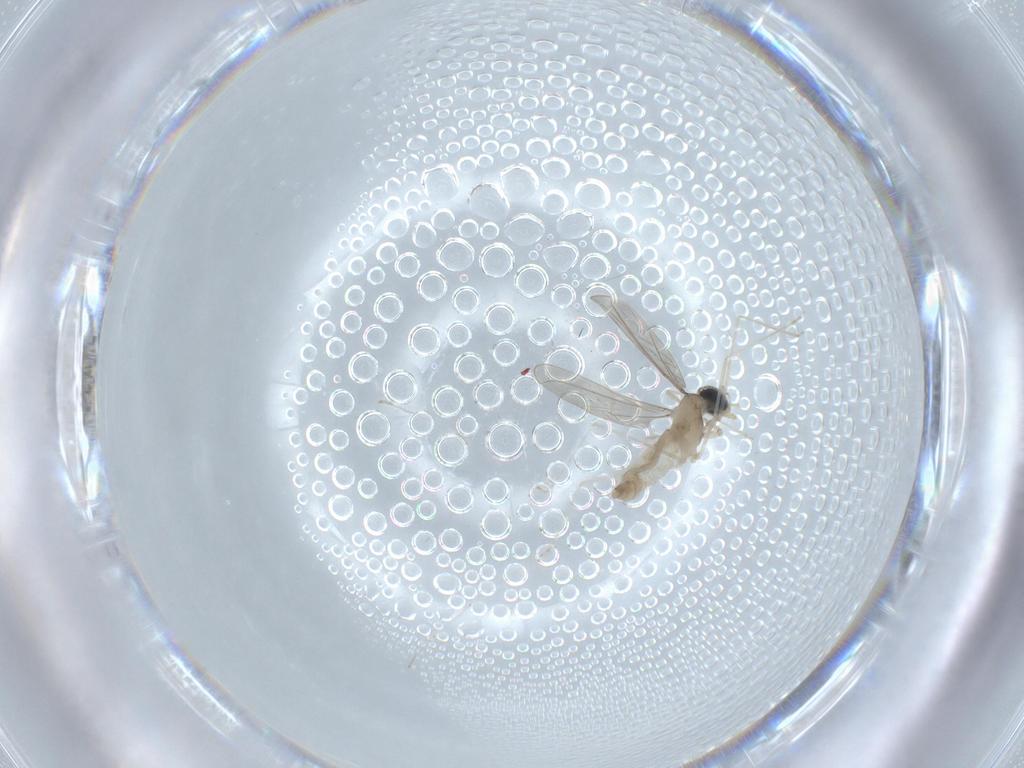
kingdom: Animalia
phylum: Arthropoda
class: Insecta
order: Diptera
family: Cecidomyiidae
